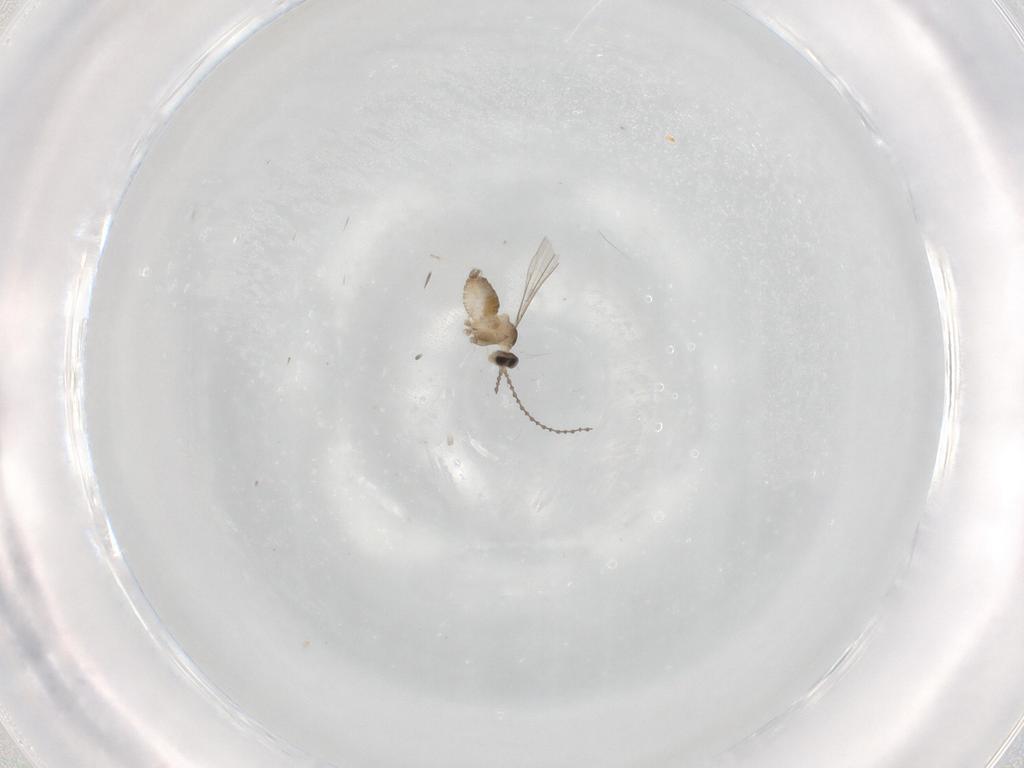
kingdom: Animalia
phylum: Arthropoda
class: Insecta
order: Diptera
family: Cecidomyiidae
